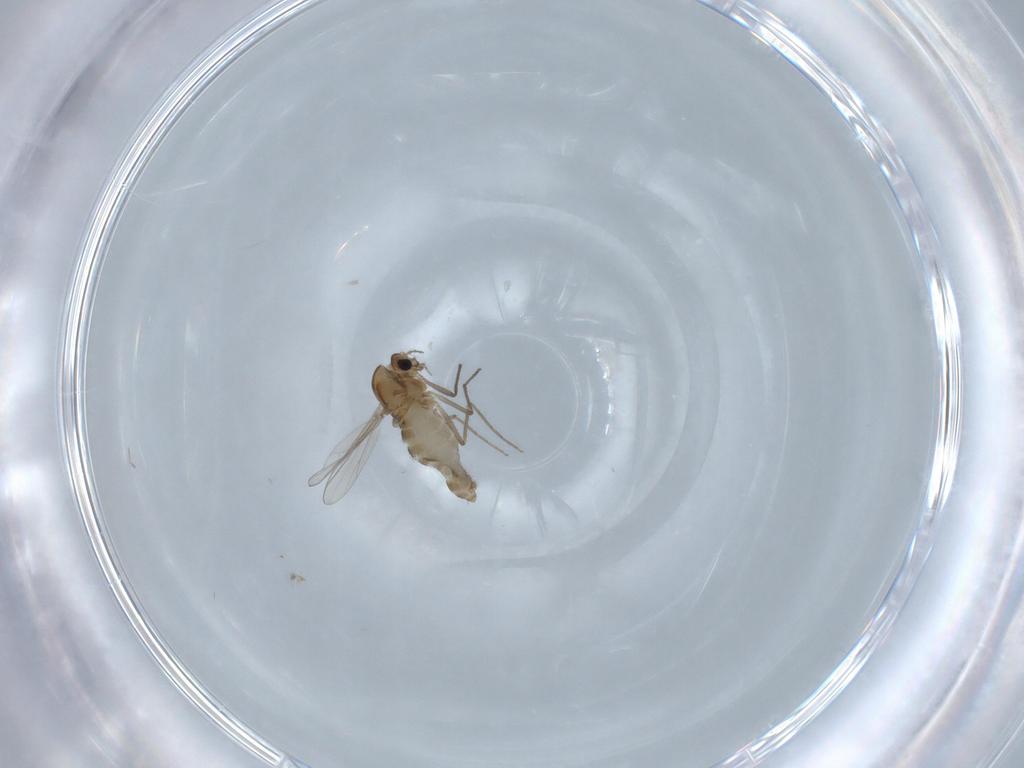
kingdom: Animalia
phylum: Arthropoda
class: Insecta
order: Diptera
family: Chironomidae
